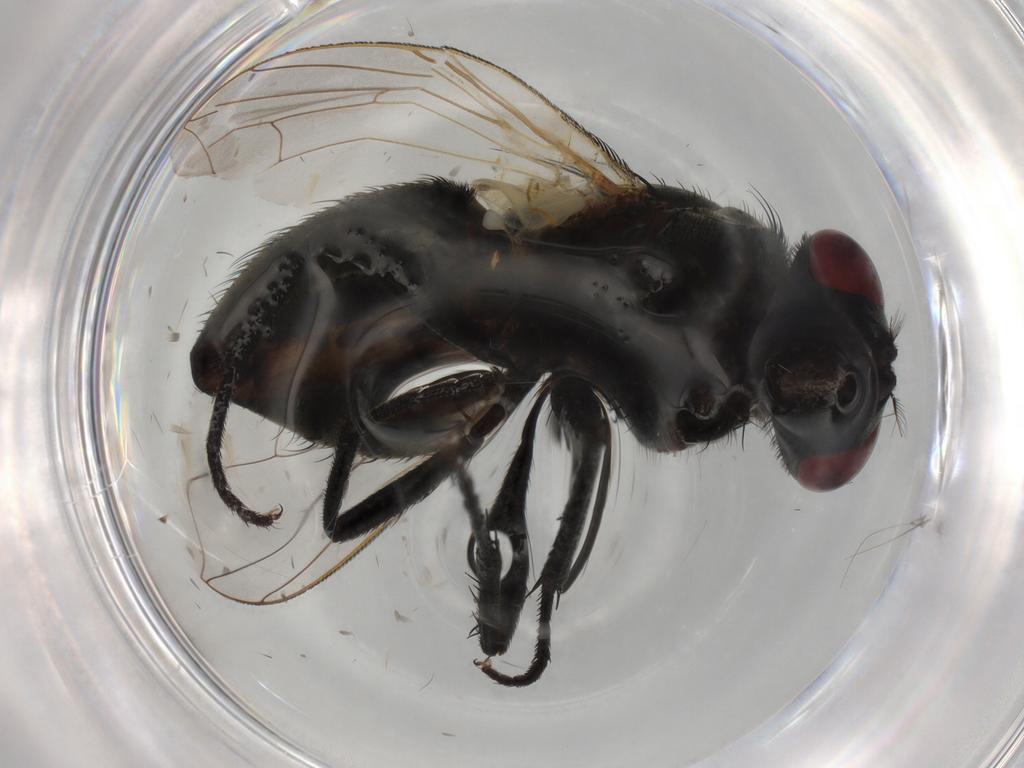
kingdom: Animalia
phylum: Arthropoda
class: Insecta
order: Diptera
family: Muscidae
